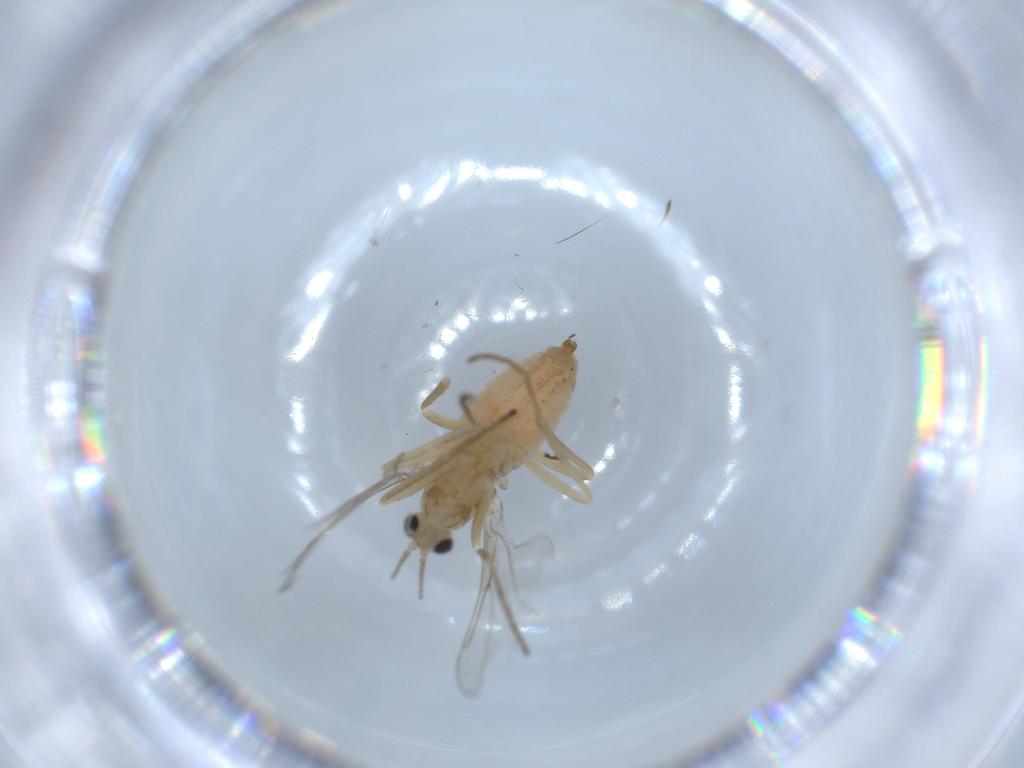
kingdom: Animalia
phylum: Arthropoda
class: Insecta
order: Diptera
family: Cecidomyiidae
